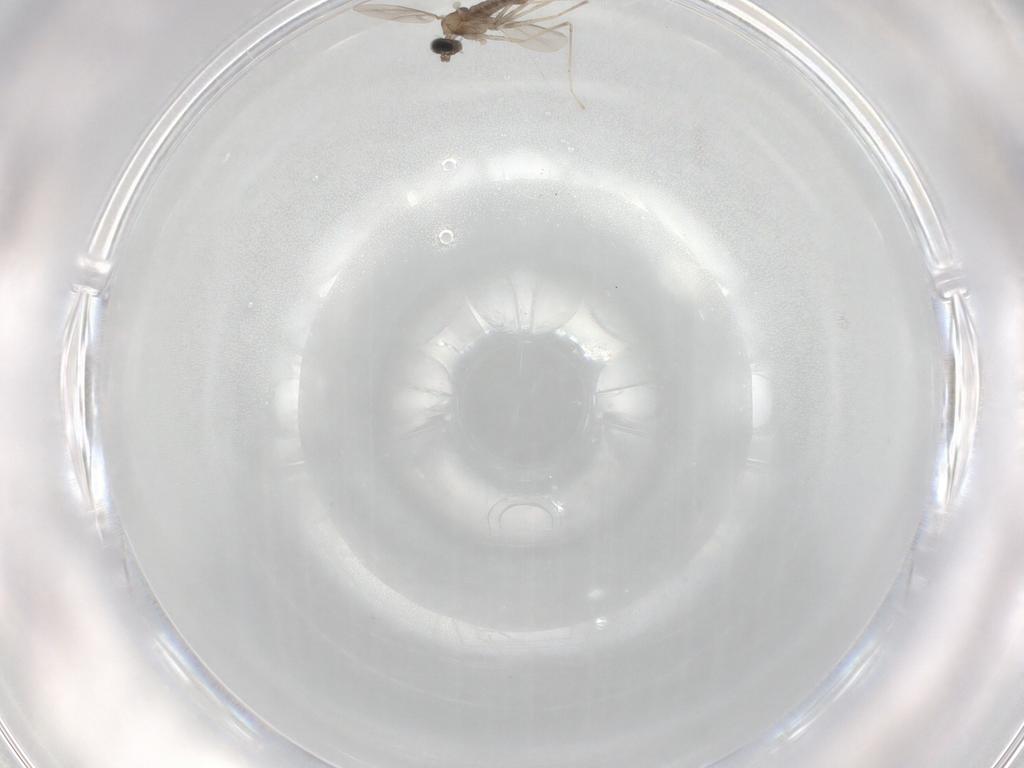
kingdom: Animalia
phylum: Arthropoda
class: Insecta
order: Diptera
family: Cecidomyiidae
